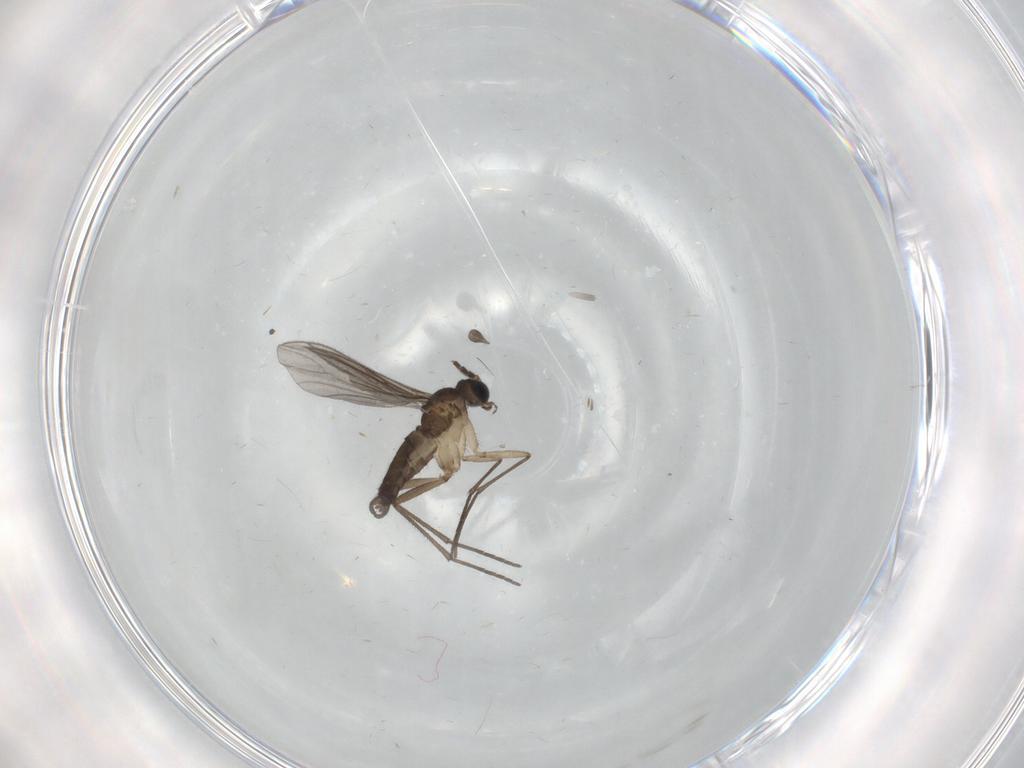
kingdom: Animalia
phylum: Arthropoda
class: Insecta
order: Diptera
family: Sciaridae
